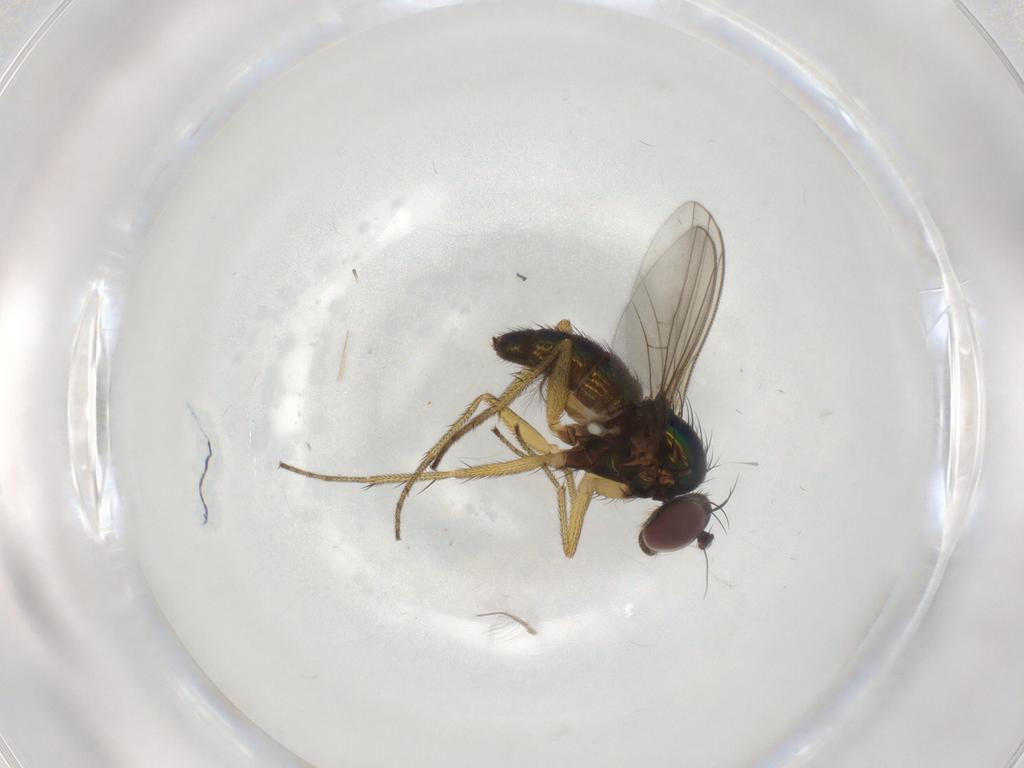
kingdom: Animalia
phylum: Arthropoda
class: Insecta
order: Diptera
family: Chironomidae
